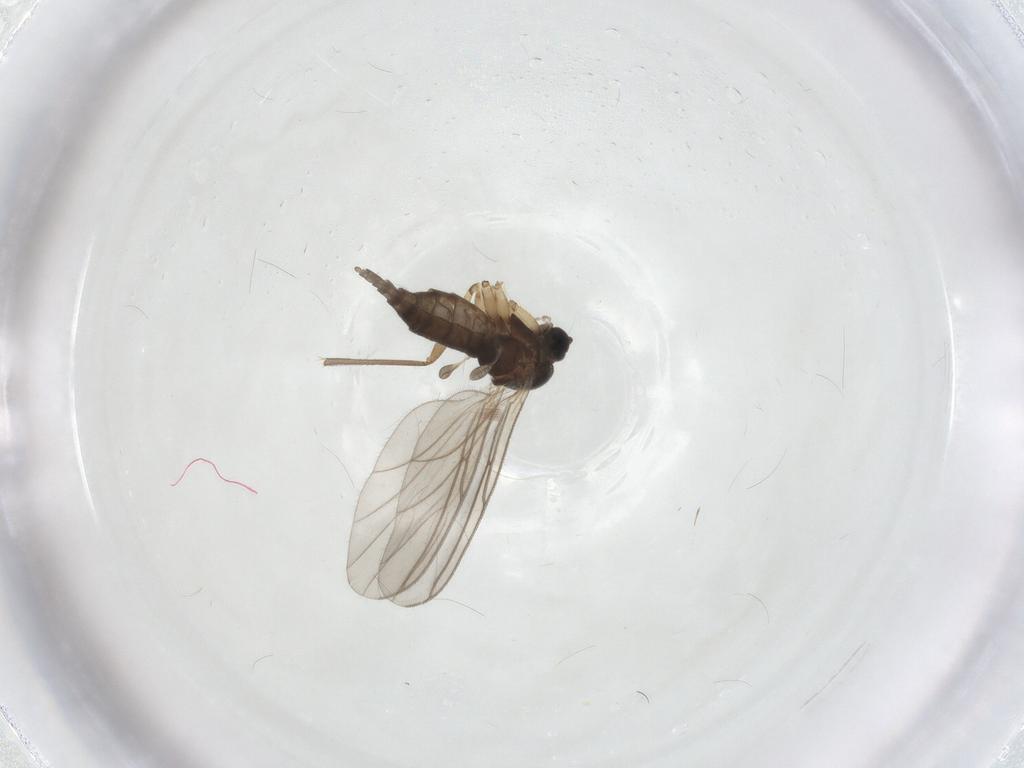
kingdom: Animalia
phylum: Arthropoda
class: Insecta
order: Diptera
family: Sciaridae
